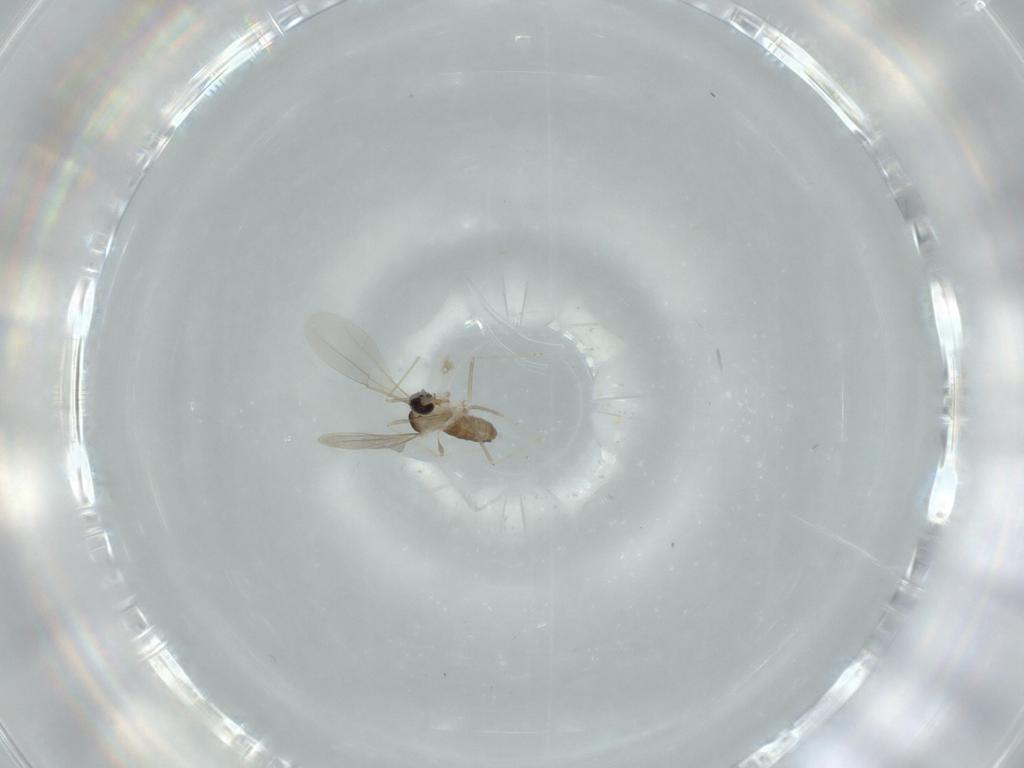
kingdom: Animalia
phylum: Arthropoda
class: Insecta
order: Diptera
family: Cecidomyiidae
